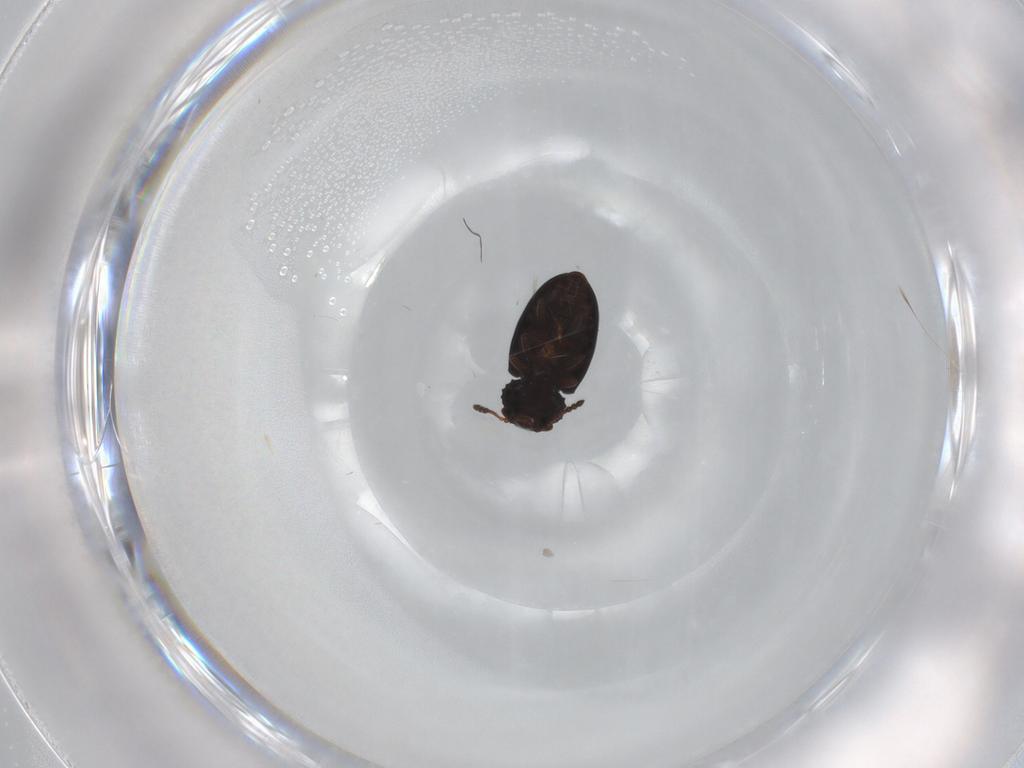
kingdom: Animalia
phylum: Arthropoda
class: Insecta
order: Coleoptera
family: Salpingidae
